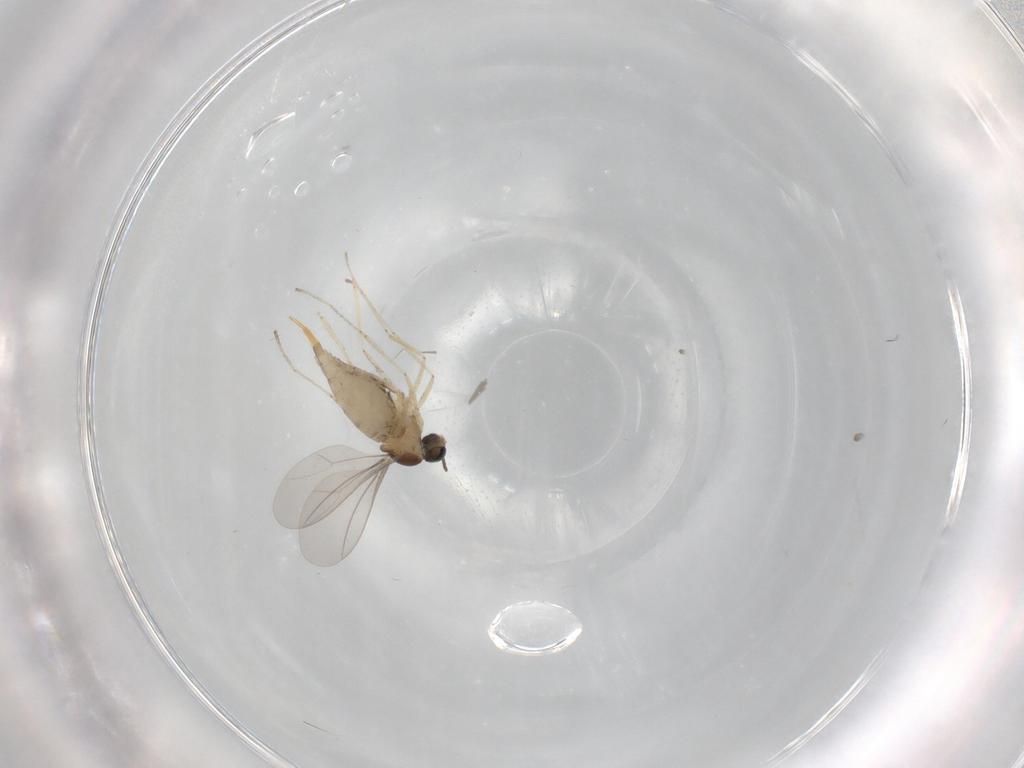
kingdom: Animalia
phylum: Arthropoda
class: Insecta
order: Diptera
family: Cecidomyiidae
